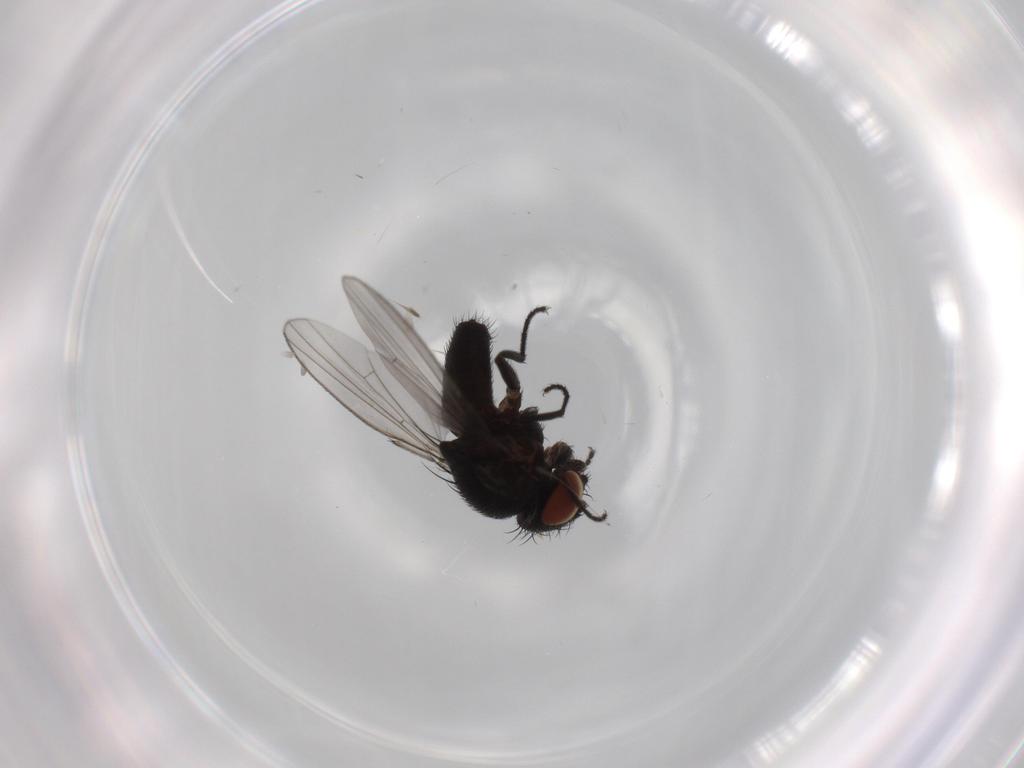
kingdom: Animalia
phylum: Arthropoda
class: Insecta
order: Diptera
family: Milichiidae
